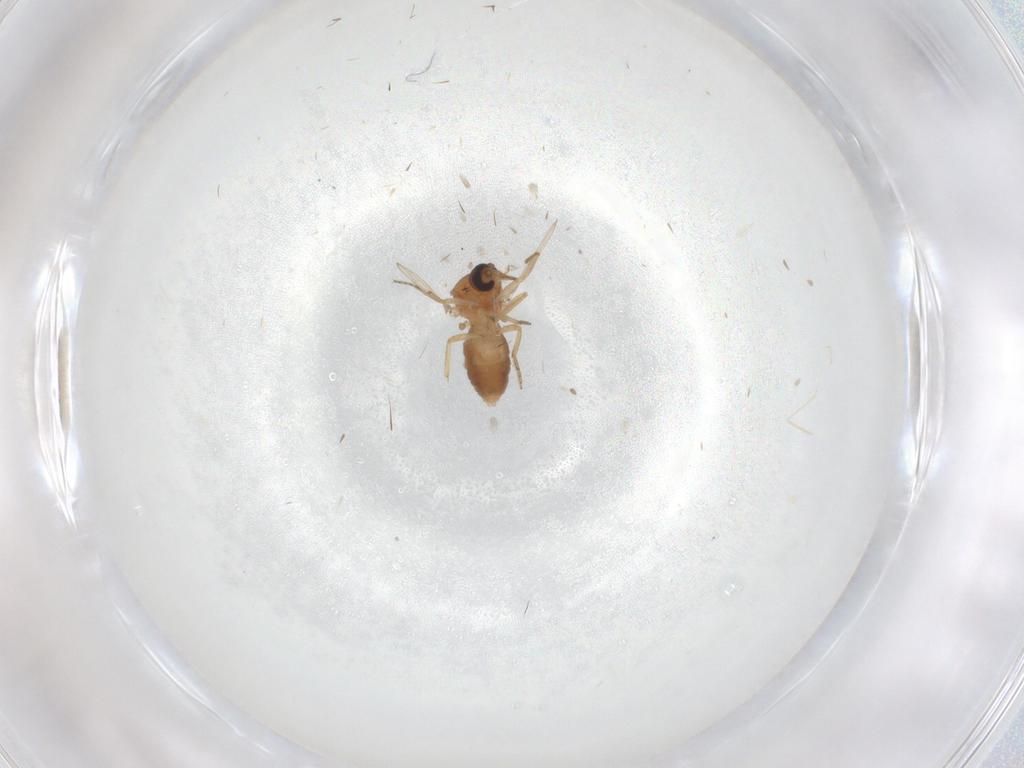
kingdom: Animalia
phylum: Arthropoda
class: Insecta
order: Diptera
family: Ceratopogonidae
